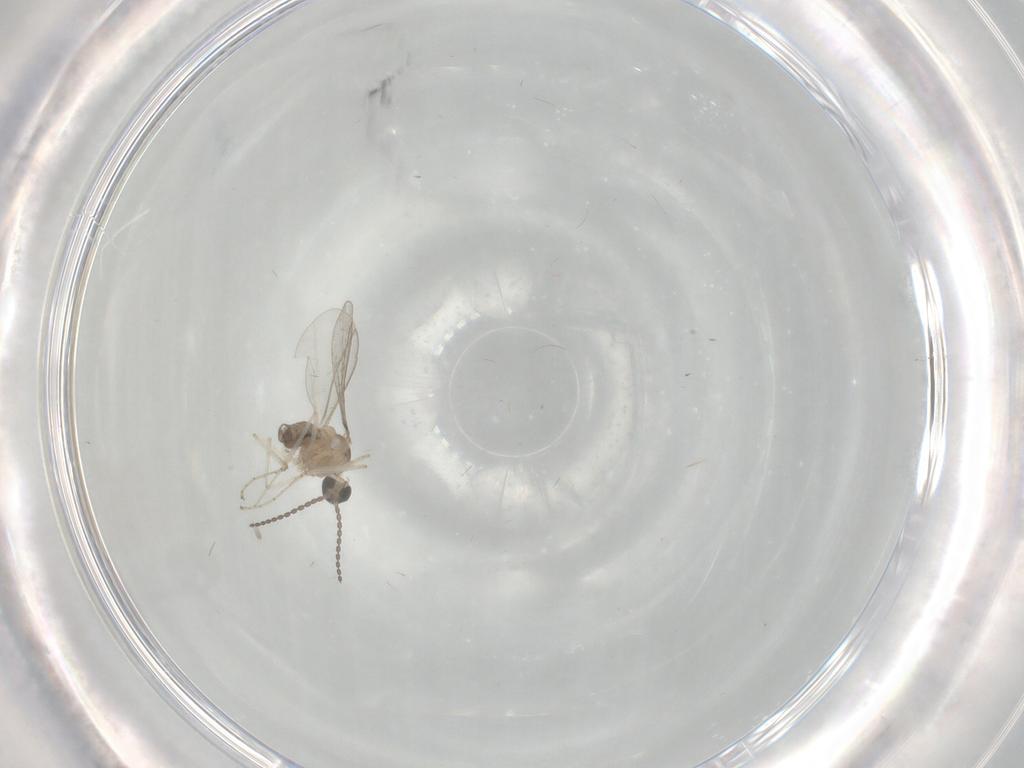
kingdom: Animalia
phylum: Arthropoda
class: Insecta
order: Diptera
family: Cecidomyiidae
